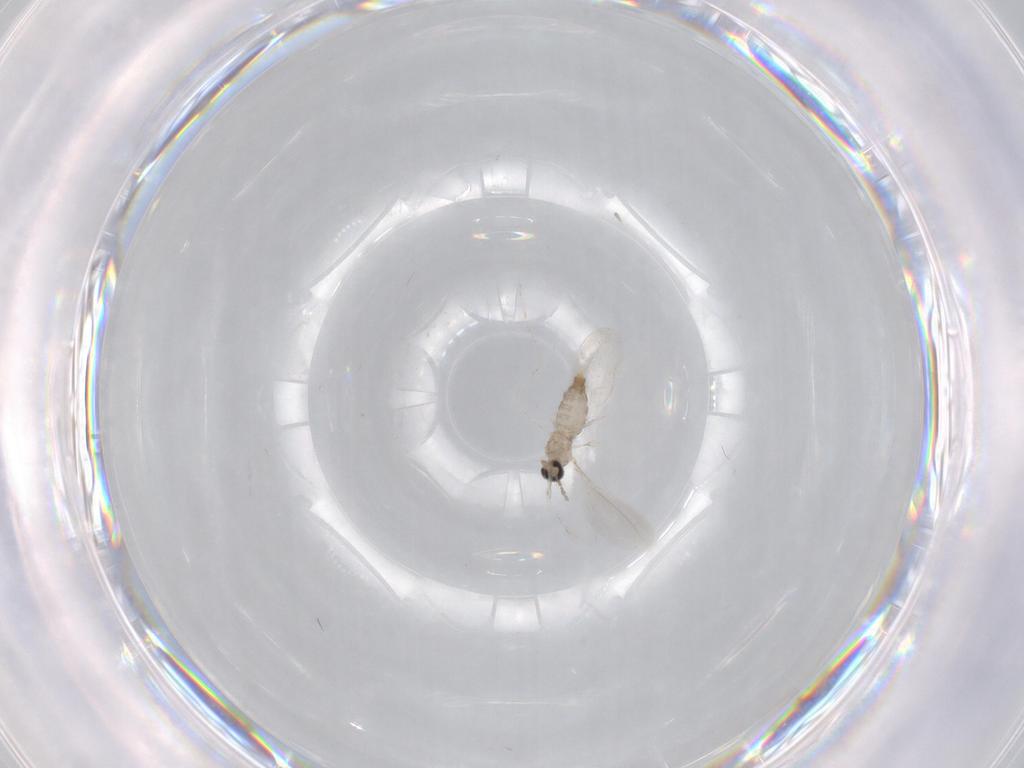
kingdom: Animalia
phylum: Arthropoda
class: Insecta
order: Diptera
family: Cecidomyiidae
